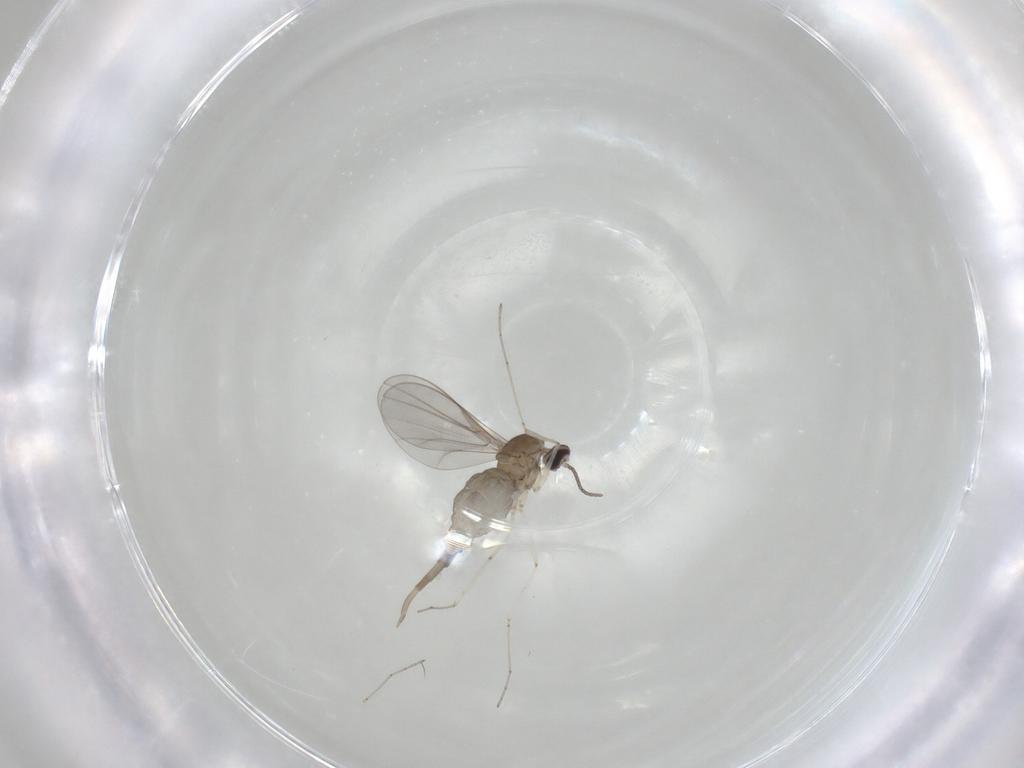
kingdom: Animalia
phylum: Arthropoda
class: Insecta
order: Diptera
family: Cecidomyiidae
